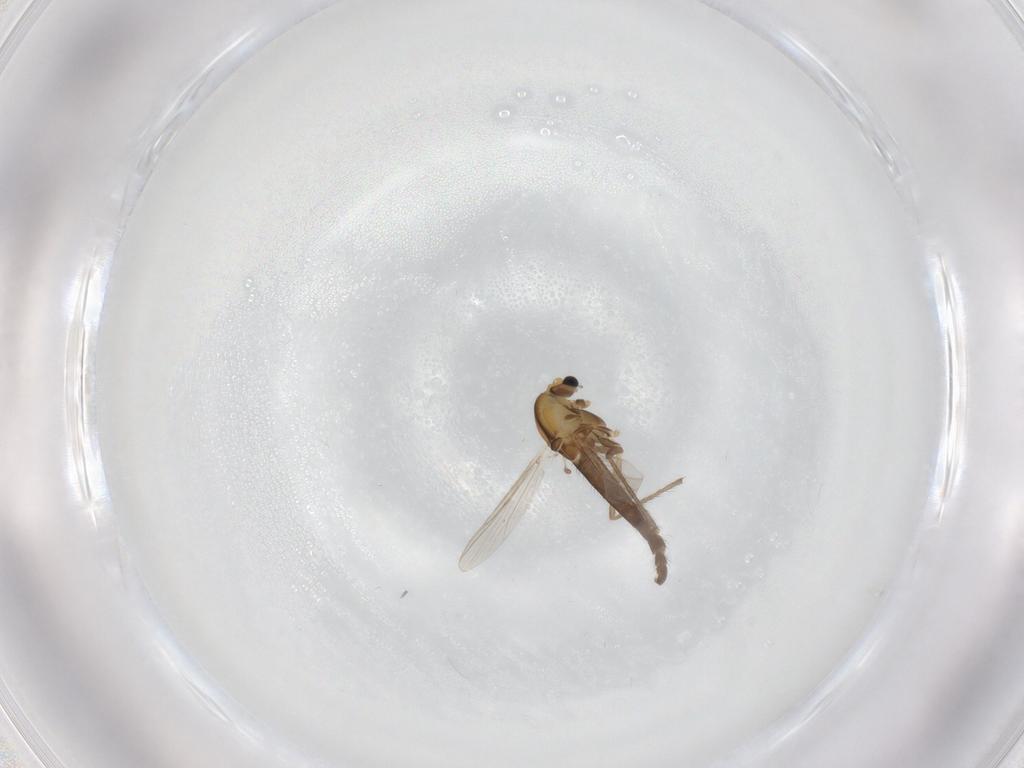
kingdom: Animalia
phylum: Arthropoda
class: Insecta
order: Diptera
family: Chironomidae
